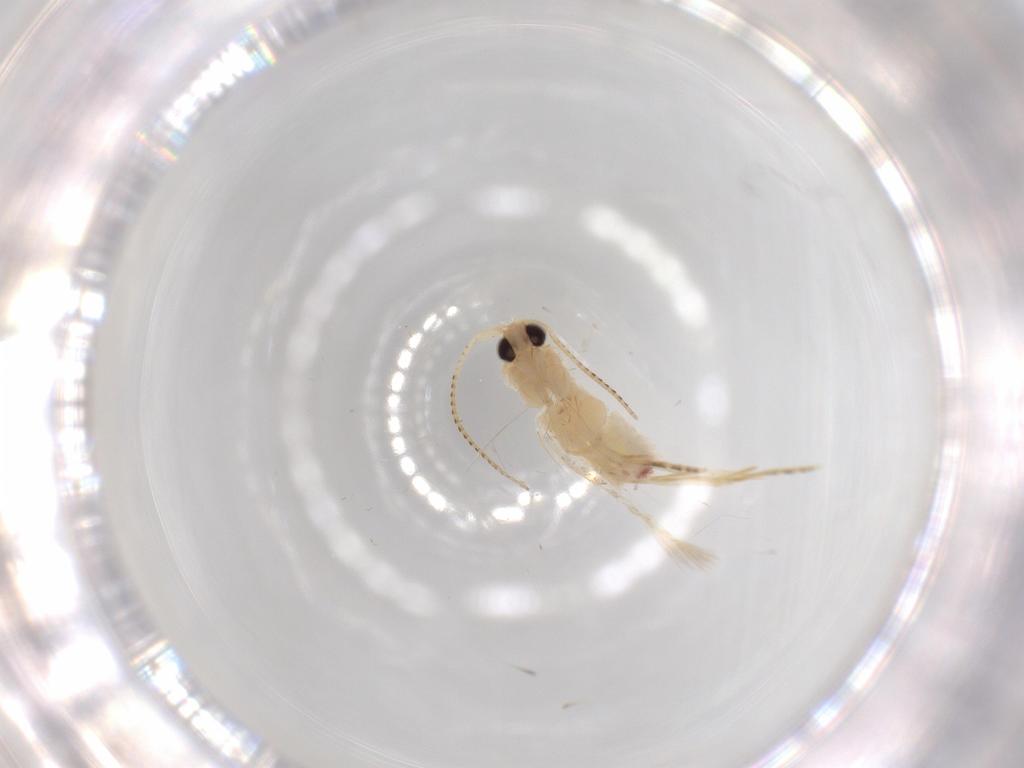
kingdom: Animalia
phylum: Arthropoda
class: Insecta
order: Lepidoptera
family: Bucculatricidae
